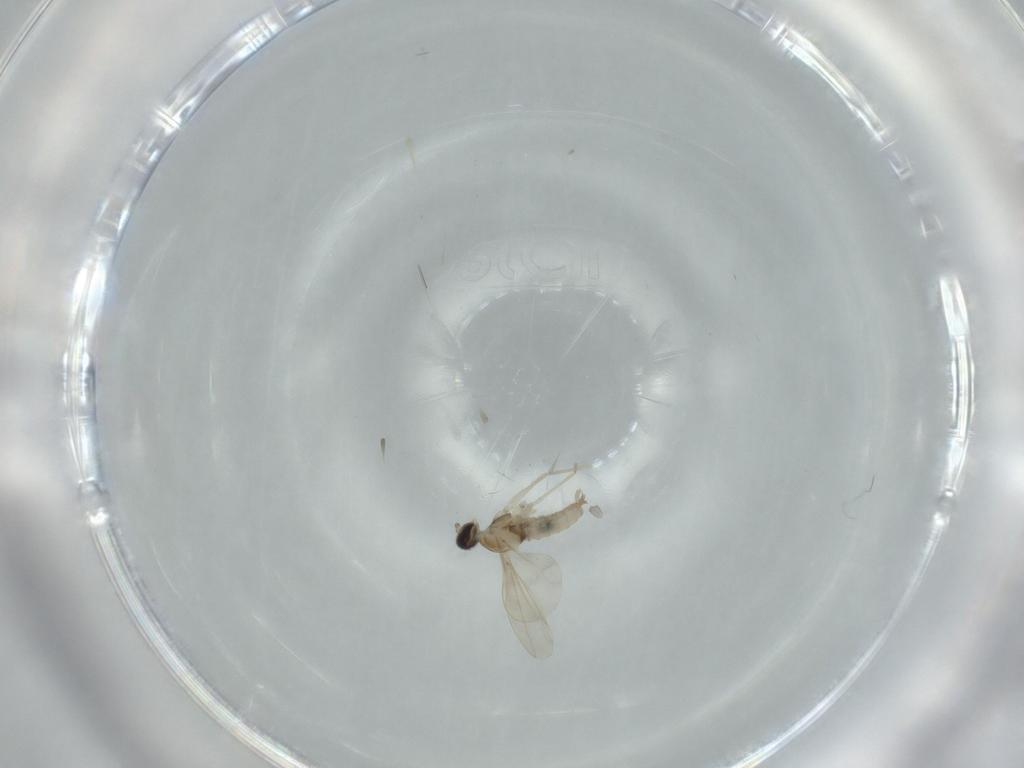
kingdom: Animalia
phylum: Arthropoda
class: Insecta
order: Diptera
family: Cecidomyiidae
